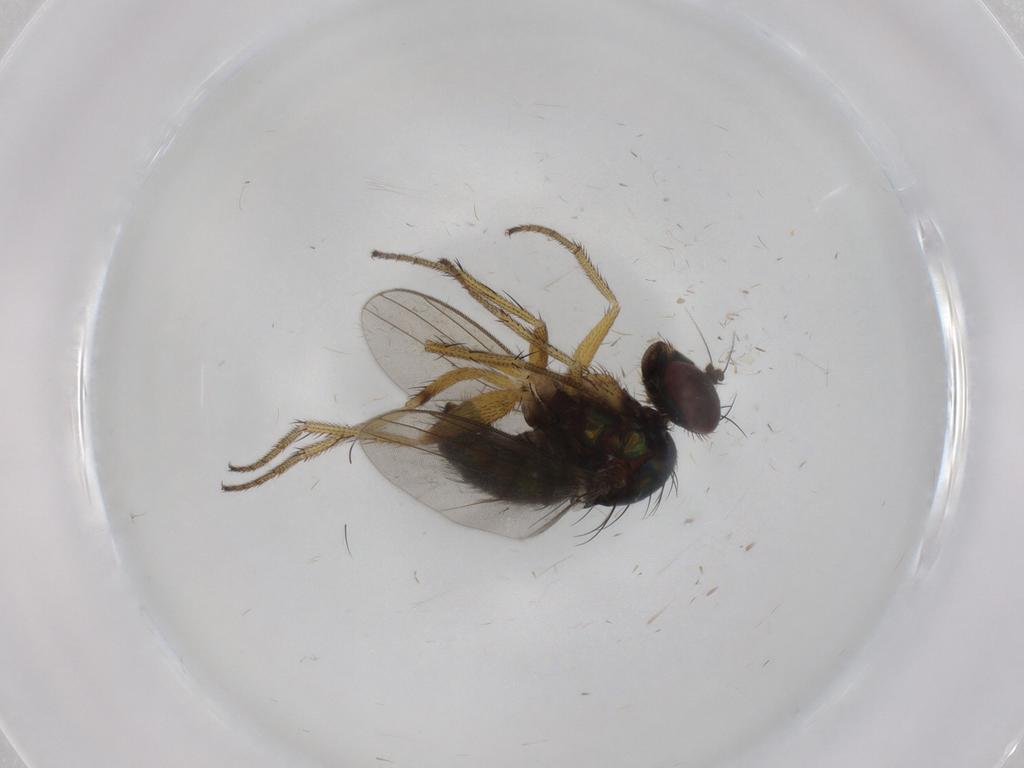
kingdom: Animalia
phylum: Arthropoda
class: Insecta
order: Diptera
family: Dolichopodidae
